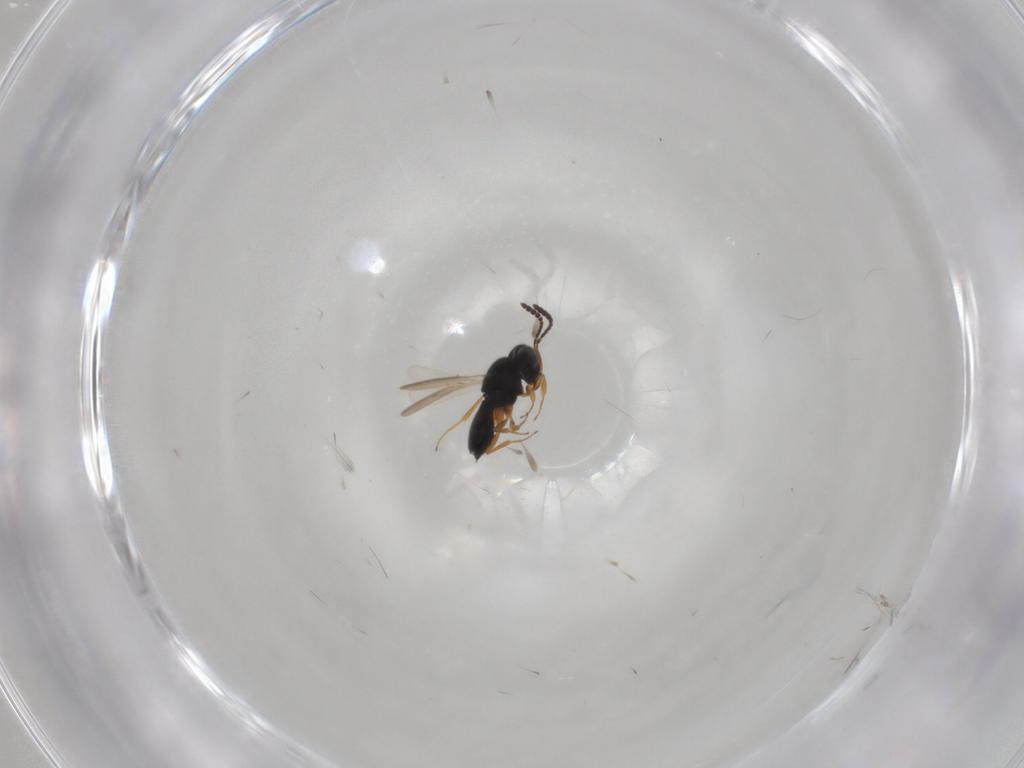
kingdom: Animalia
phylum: Arthropoda
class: Insecta
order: Hymenoptera
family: Scelionidae
